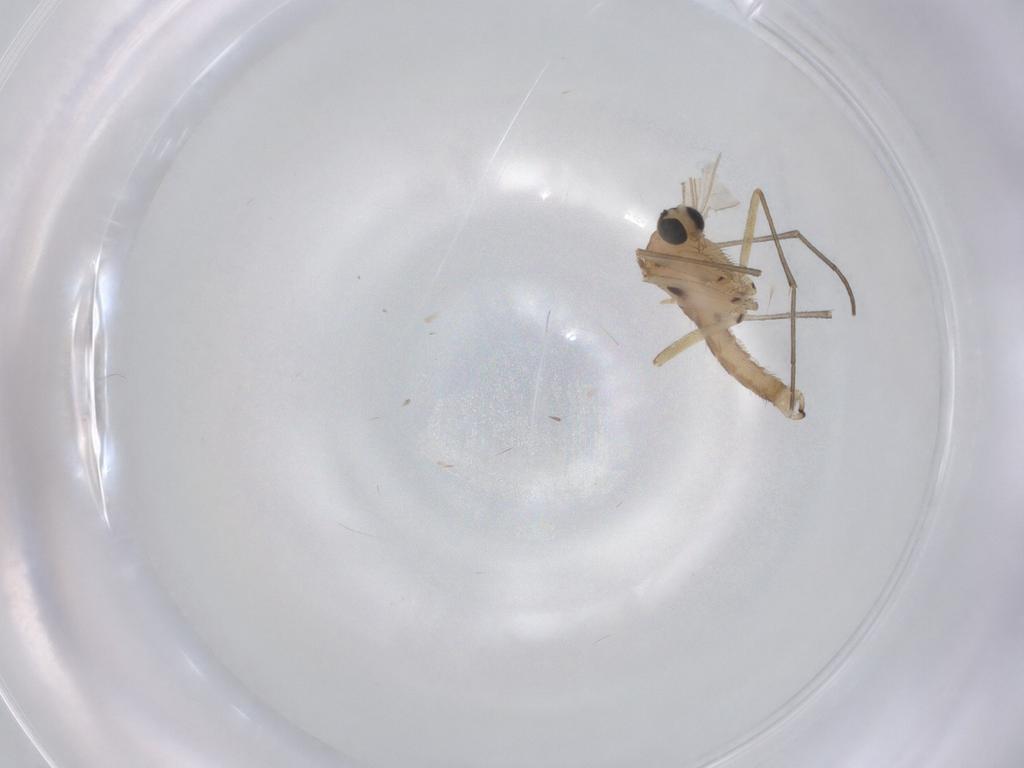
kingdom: Animalia
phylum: Arthropoda
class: Insecta
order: Diptera
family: Sciaridae
